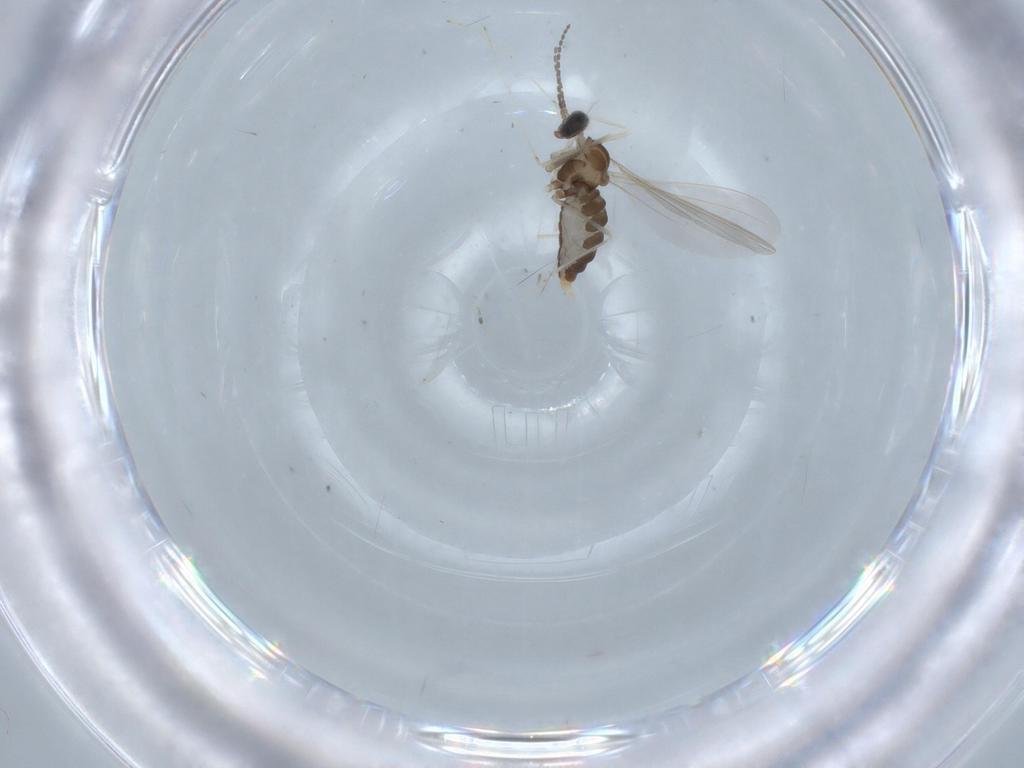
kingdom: Animalia
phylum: Arthropoda
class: Insecta
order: Diptera
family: Cecidomyiidae
